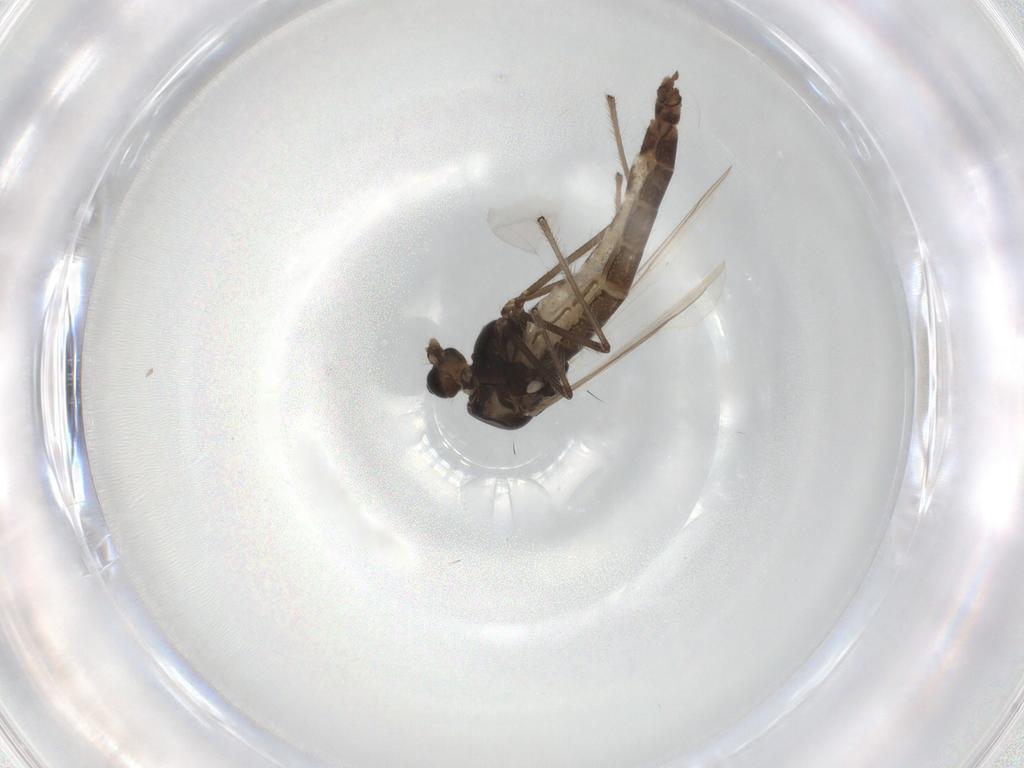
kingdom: Animalia
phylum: Arthropoda
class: Insecta
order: Diptera
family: Chironomidae
